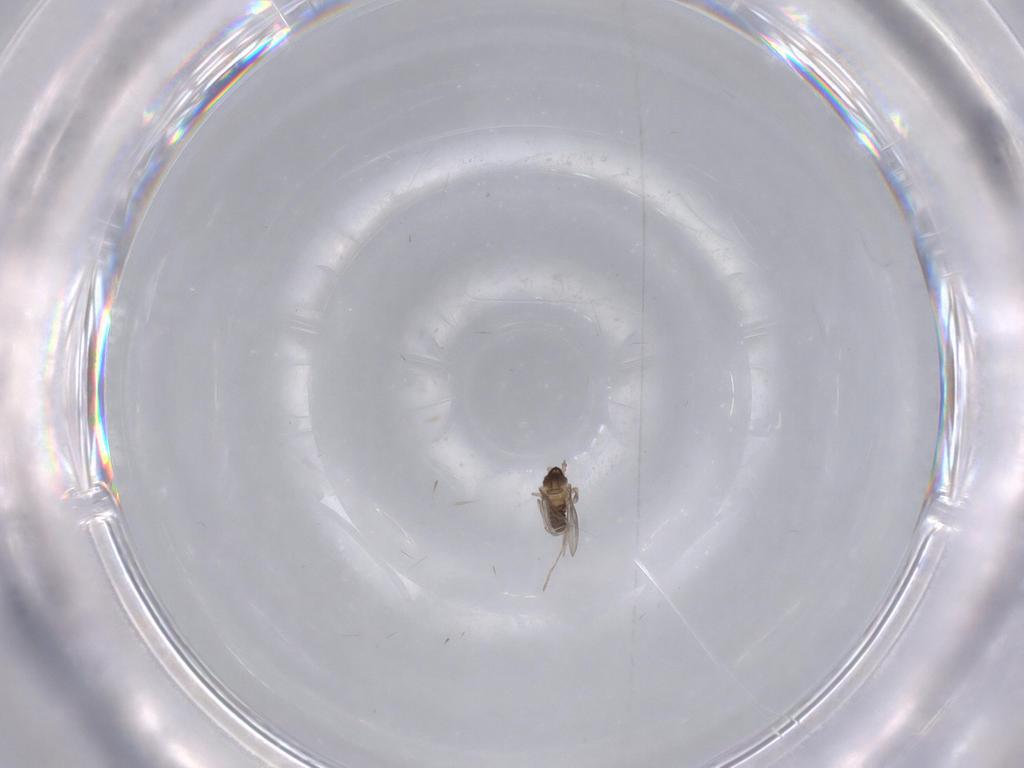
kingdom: Animalia
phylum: Arthropoda
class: Insecta
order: Diptera
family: Cecidomyiidae
